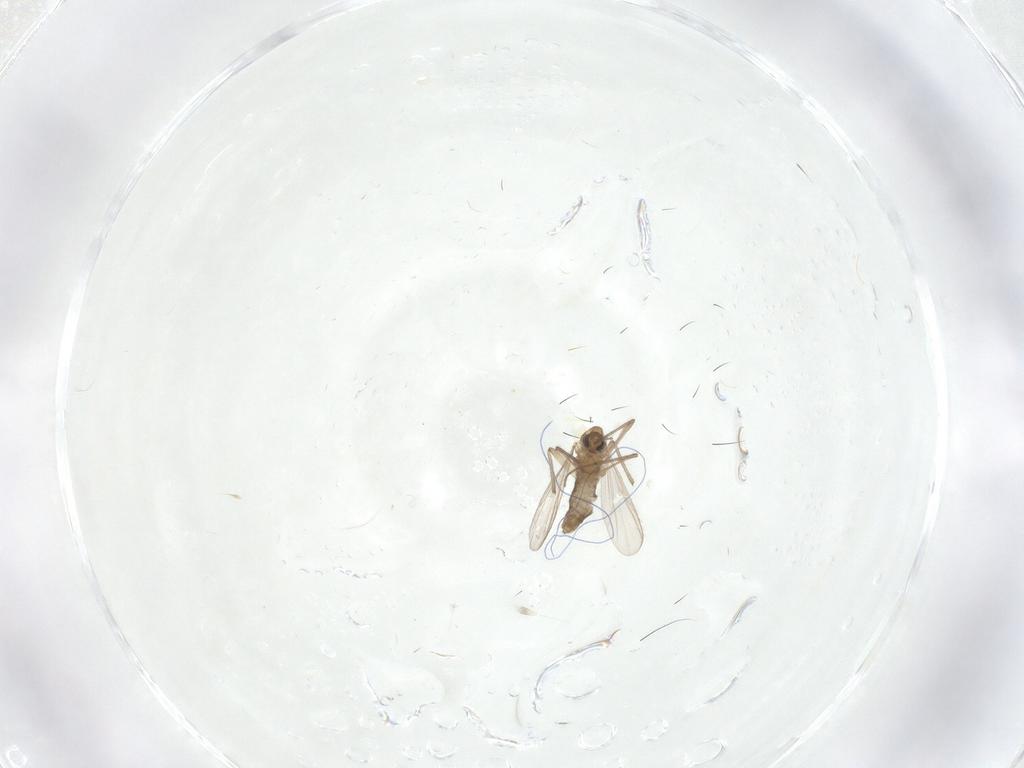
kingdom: Animalia
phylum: Arthropoda
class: Insecta
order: Diptera
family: Chironomidae
